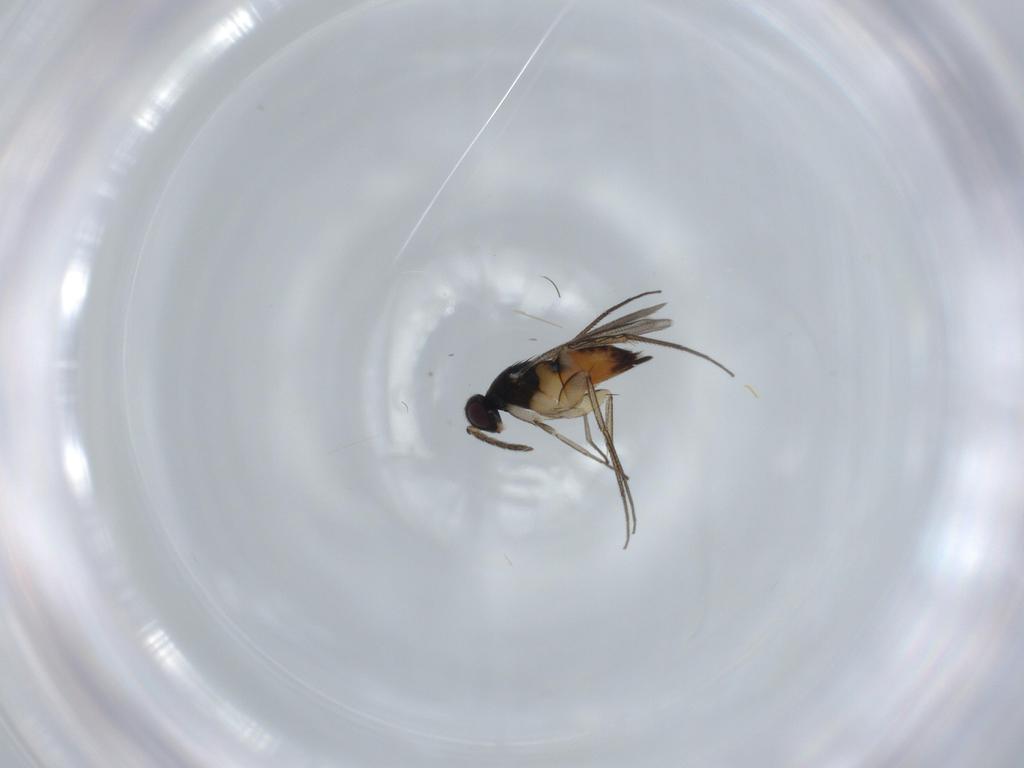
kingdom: Animalia
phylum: Arthropoda
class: Insecta
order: Hymenoptera
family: Eulophidae
